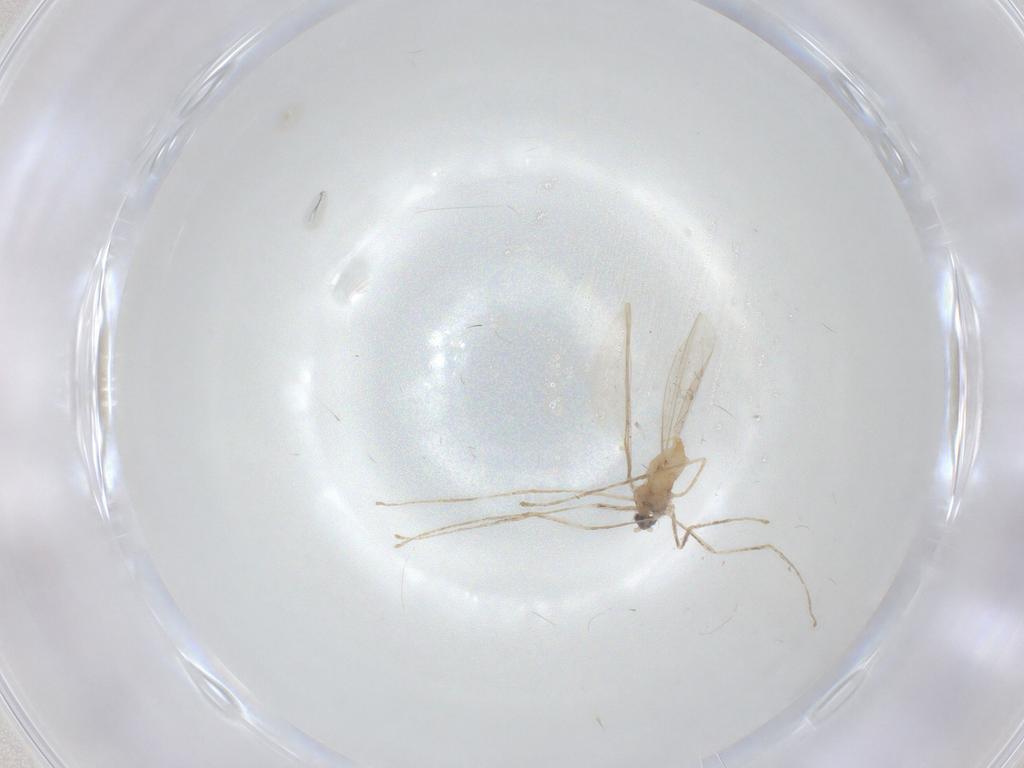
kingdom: Animalia
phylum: Arthropoda
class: Insecta
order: Diptera
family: Cecidomyiidae
